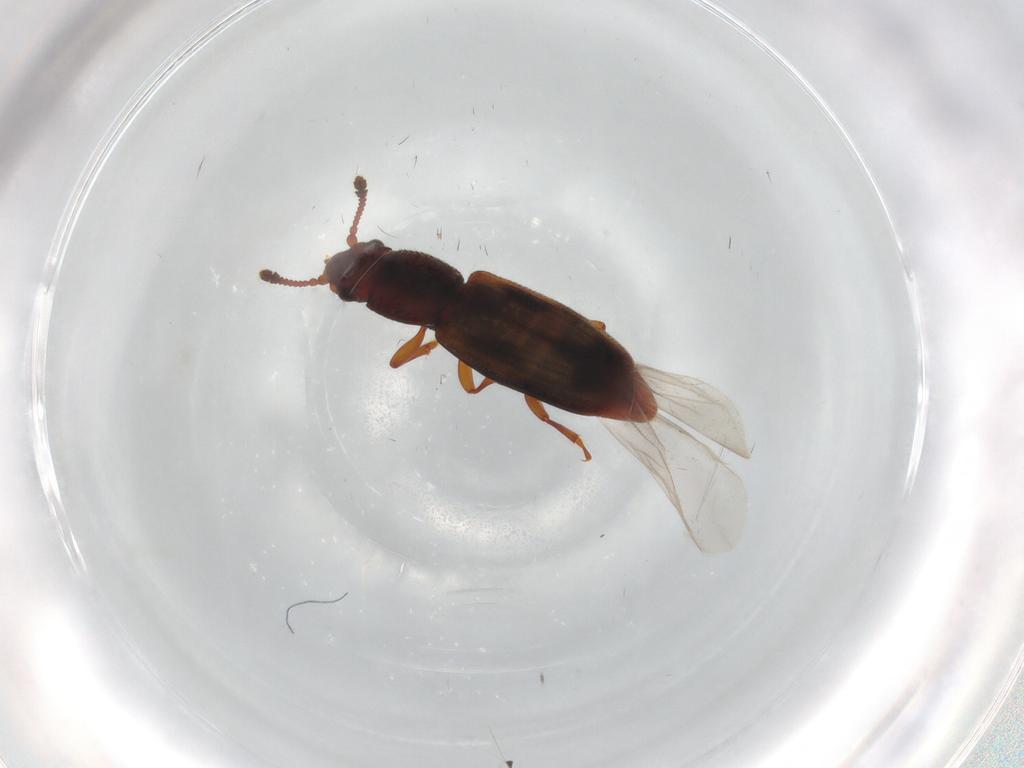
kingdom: Animalia
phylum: Arthropoda
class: Insecta
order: Coleoptera
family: Monotomidae
